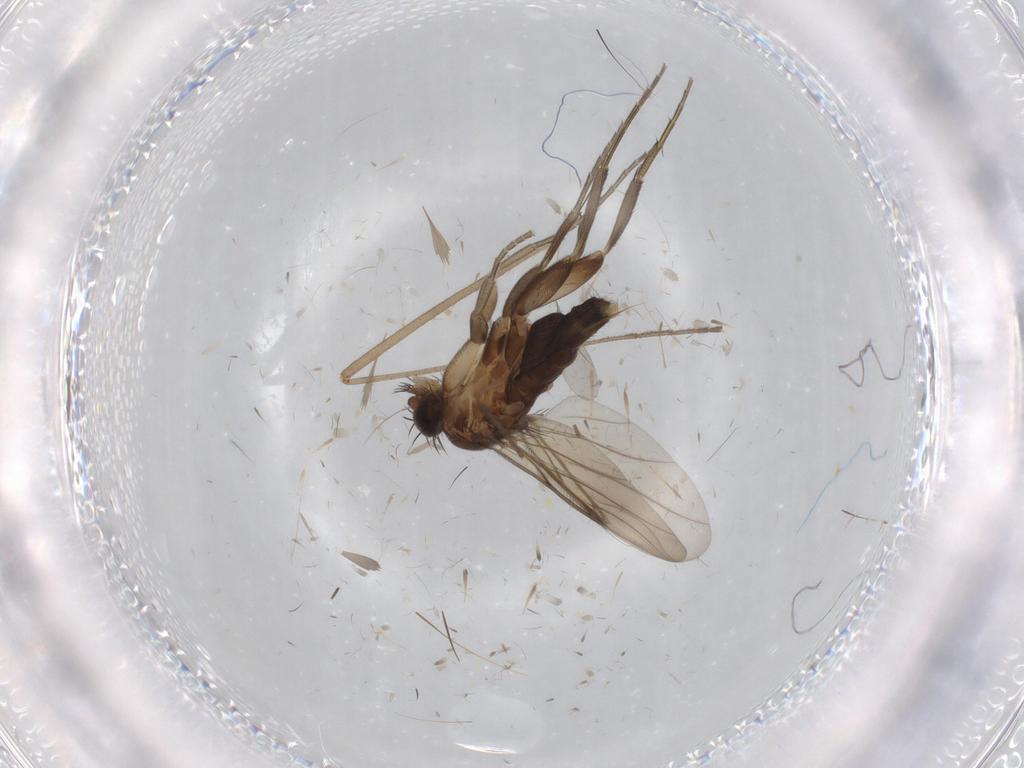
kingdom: Animalia
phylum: Arthropoda
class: Insecta
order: Diptera
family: Phoridae
